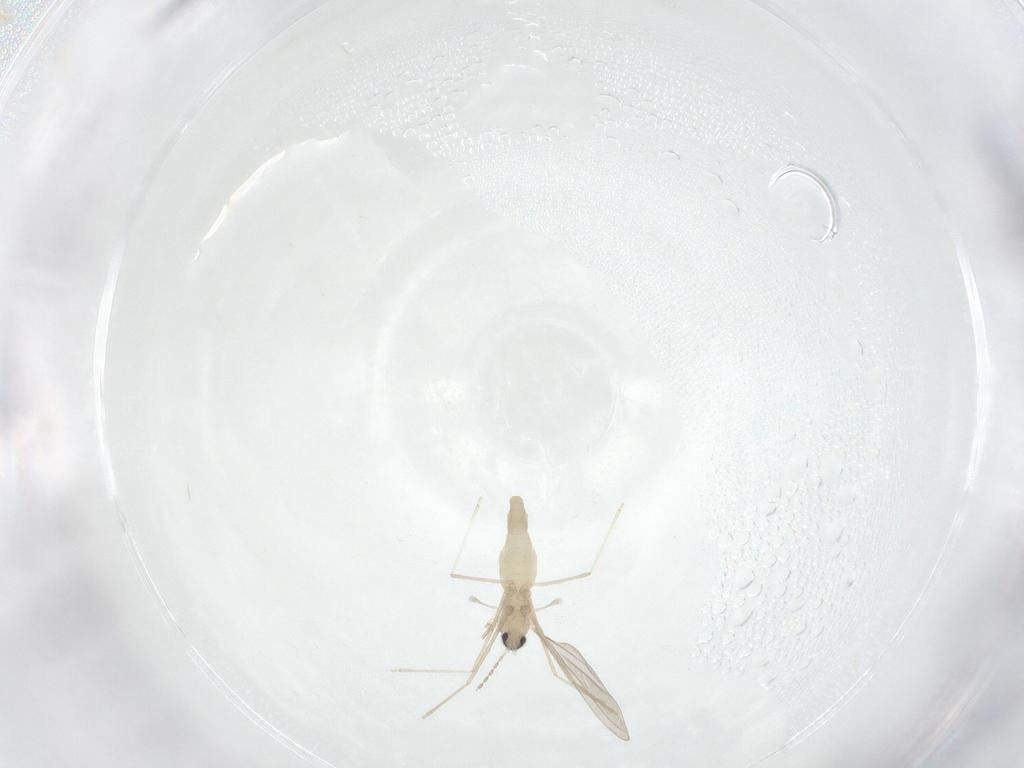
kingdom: Animalia
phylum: Arthropoda
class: Insecta
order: Diptera
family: Cecidomyiidae
